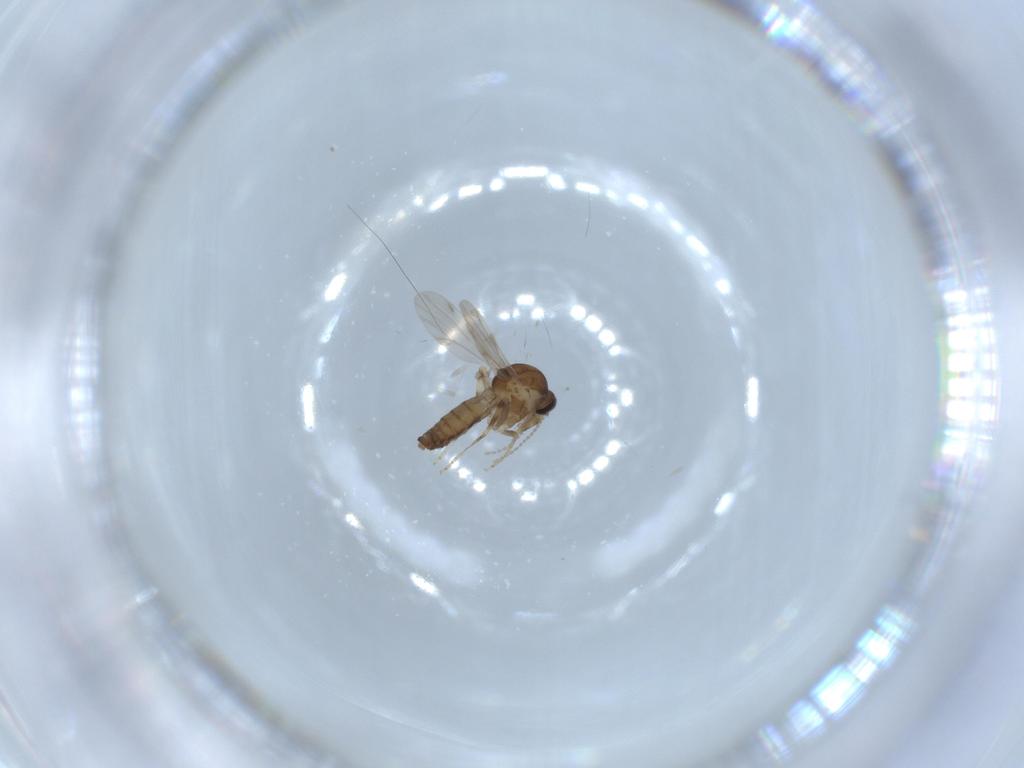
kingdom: Animalia
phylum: Arthropoda
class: Insecta
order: Diptera
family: Ceratopogonidae
